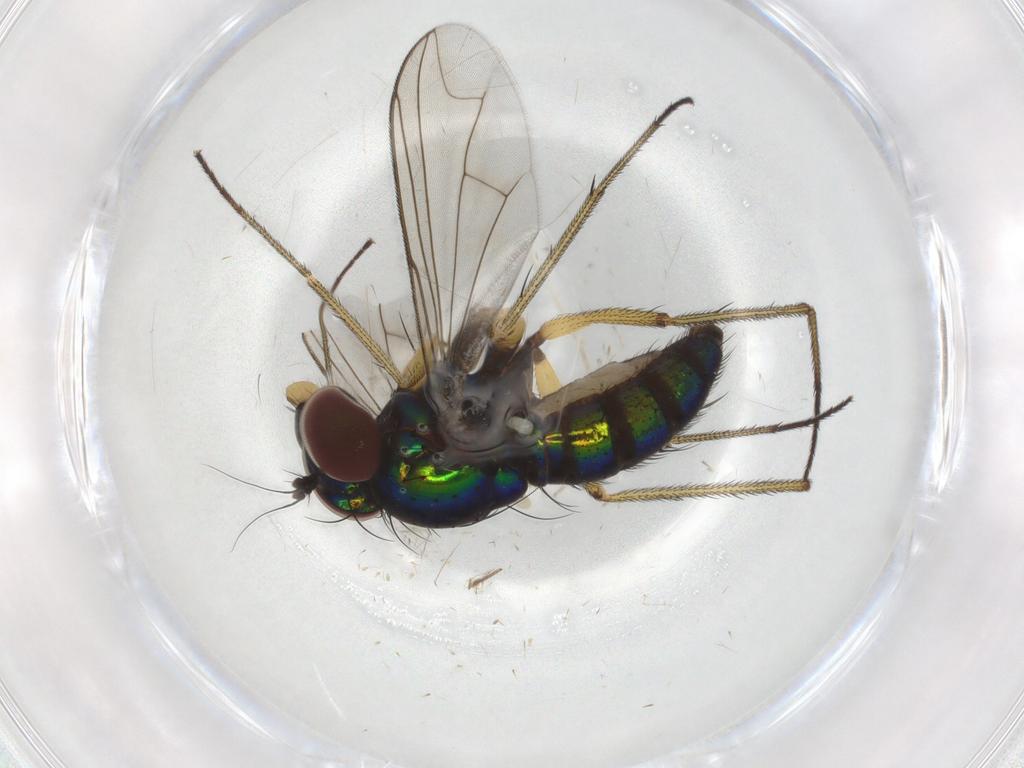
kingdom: Animalia
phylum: Arthropoda
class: Insecta
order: Diptera
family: Dolichopodidae
